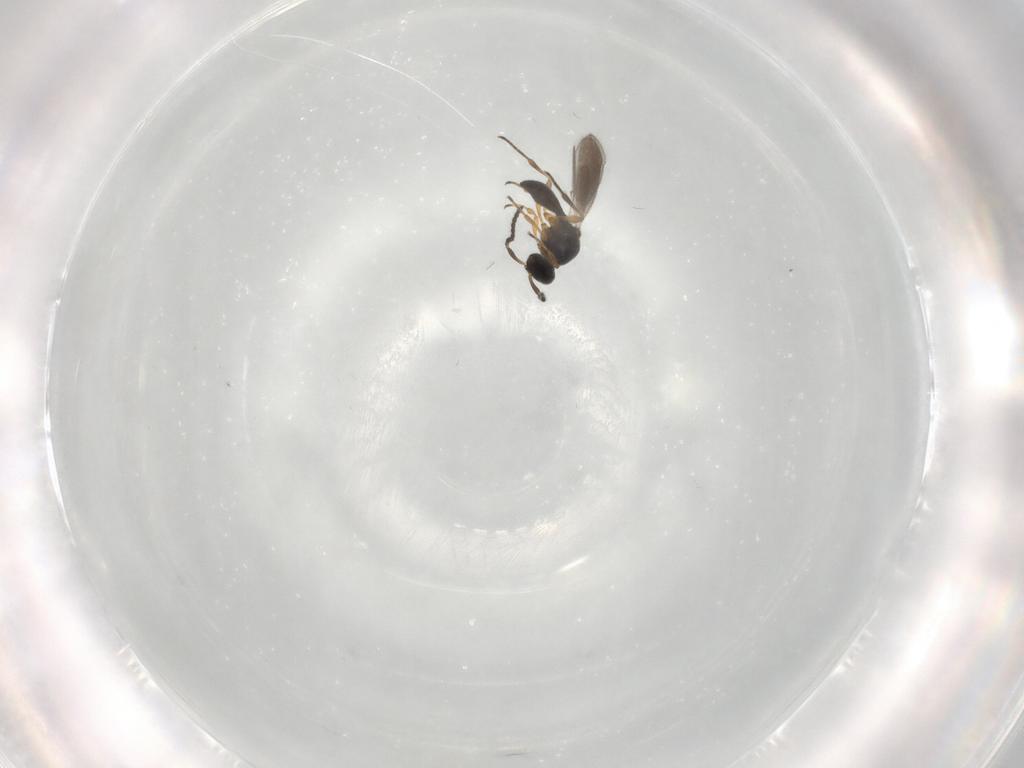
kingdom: Animalia
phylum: Arthropoda
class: Insecta
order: Hymenoptera
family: Platygastridae
